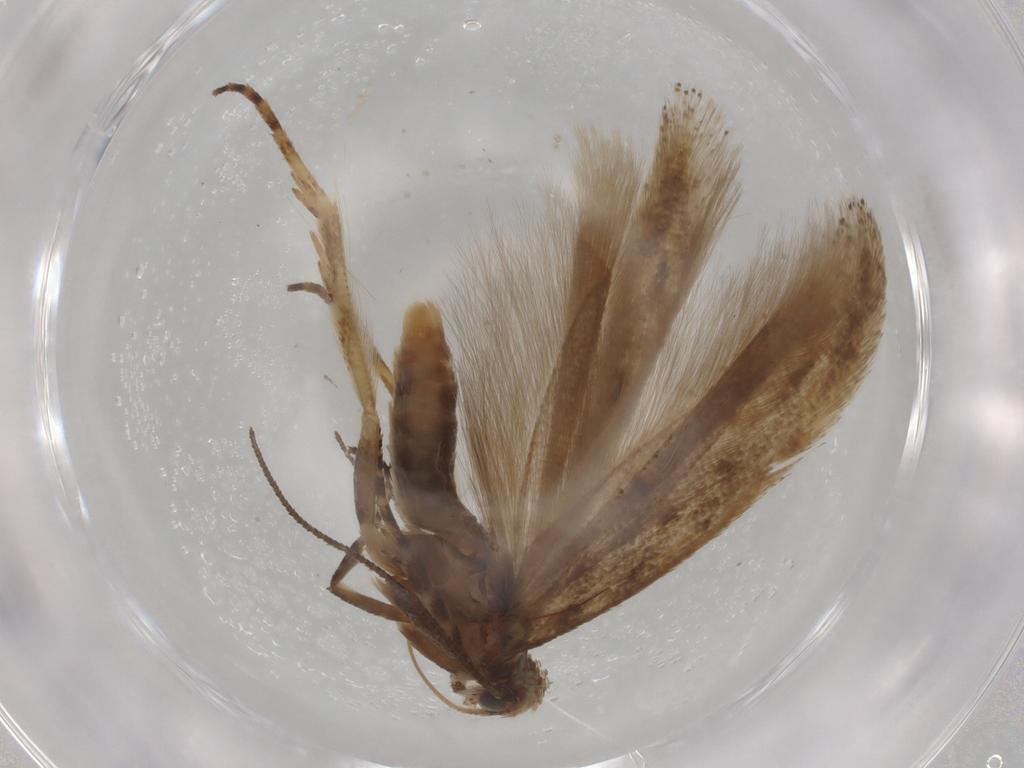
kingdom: Animalia
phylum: Arthropoda
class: Insecta
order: Lepidoptera
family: Gelechiidae
